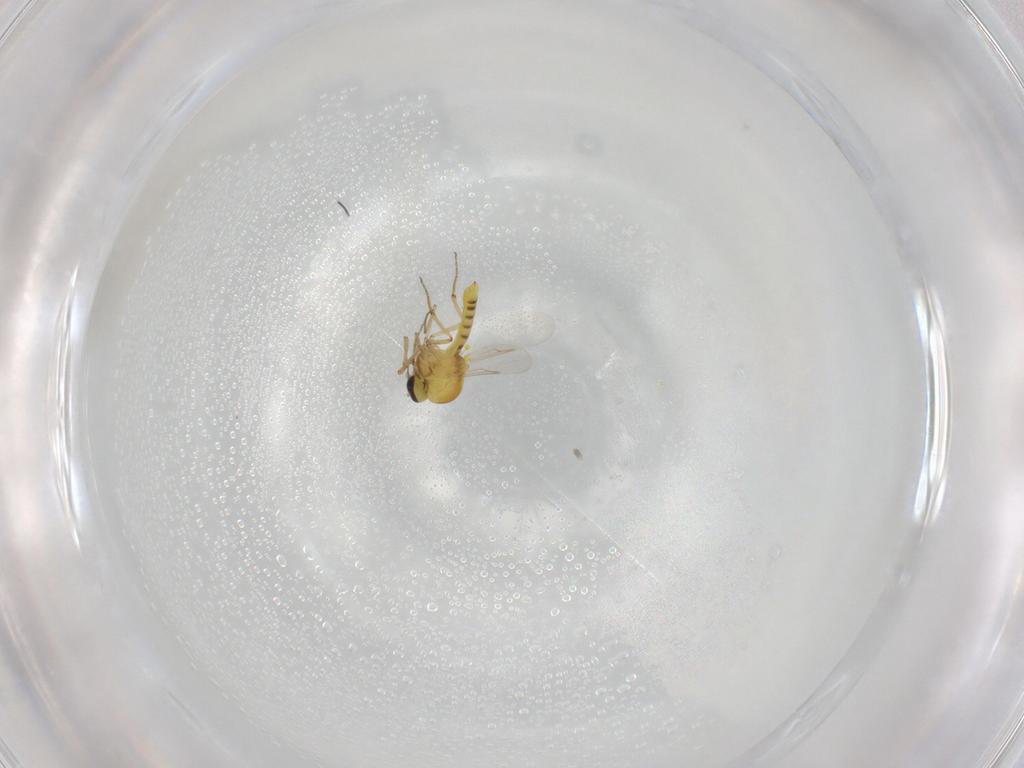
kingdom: Animalia
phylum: Arthropoda
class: Insecta
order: Diptera
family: Ceratopogonidae
